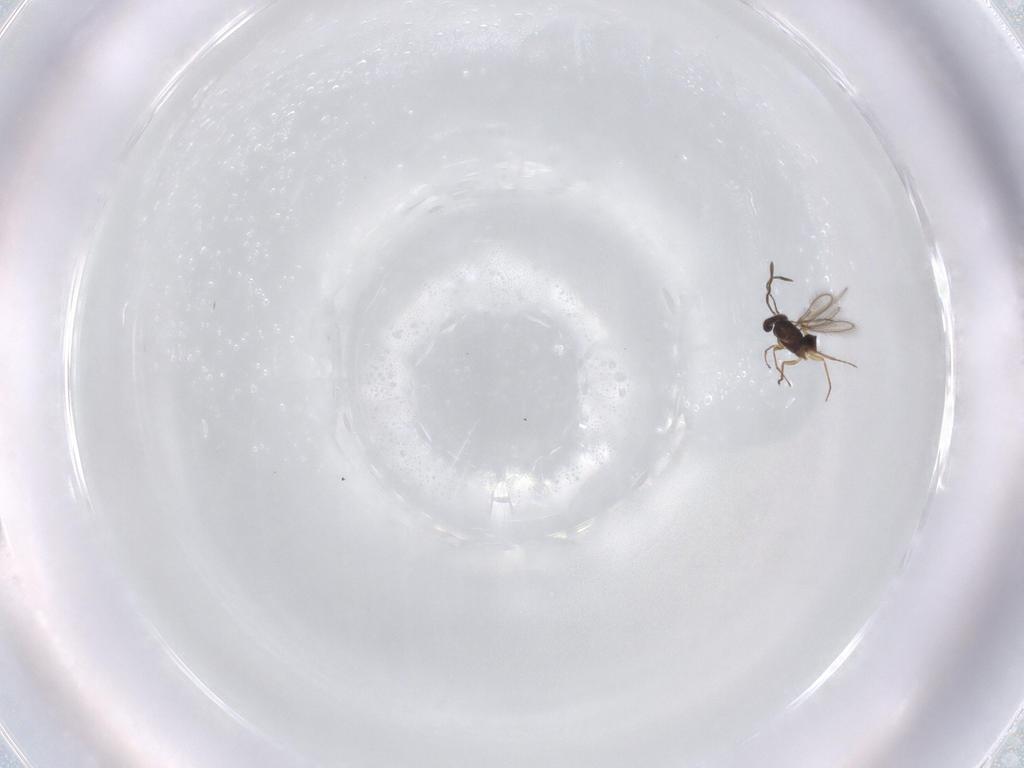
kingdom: Animalia
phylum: Arthropoda
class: Insecta
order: Hymenoptera
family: Mymaridae
